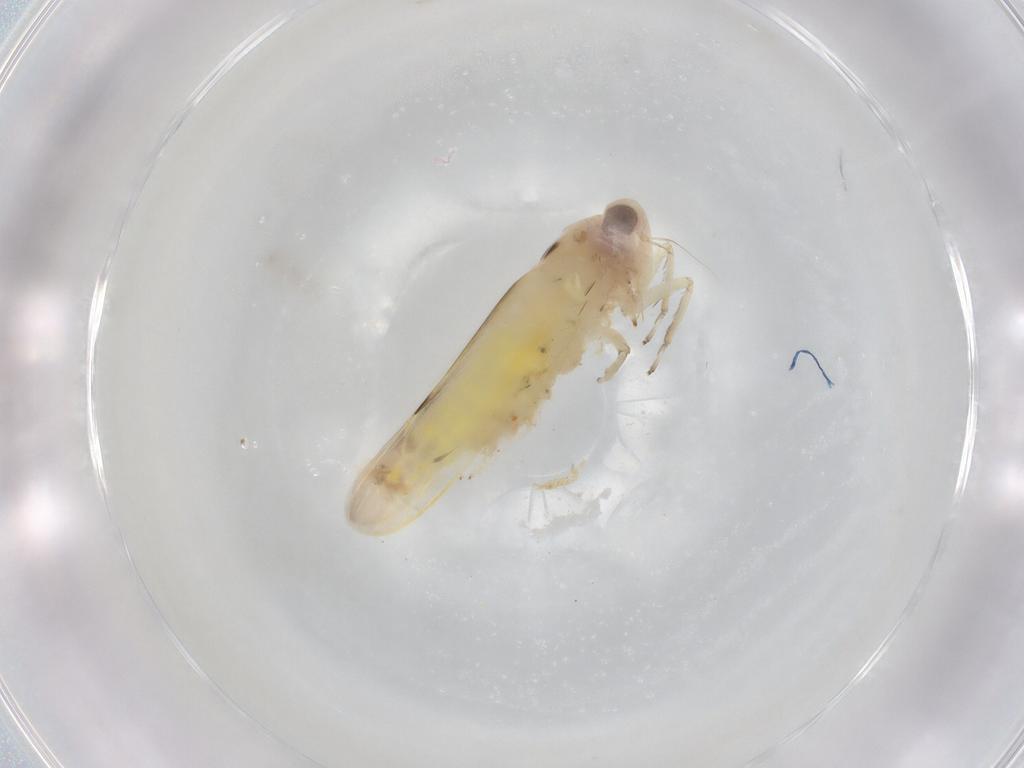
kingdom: Animalia
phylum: Arthropoda
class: Insecta
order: Hemiptera
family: Cicadellidae
